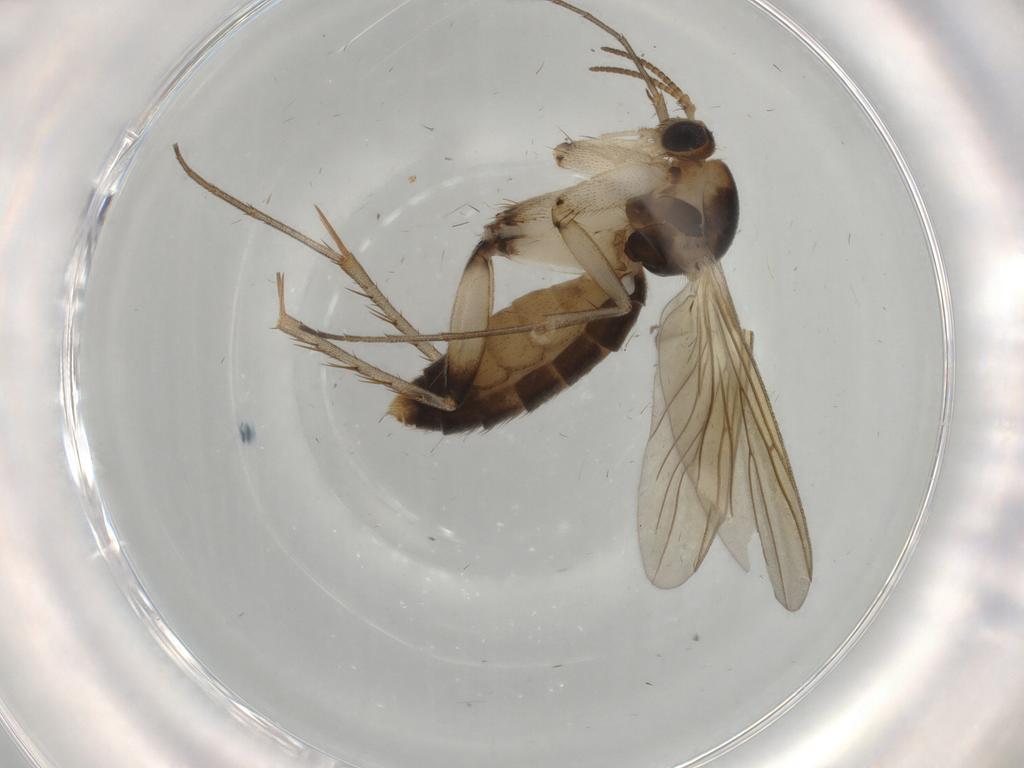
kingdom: Animalia
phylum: Arthropoda
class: Insecta
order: Diptera
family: Mycetophilidae
